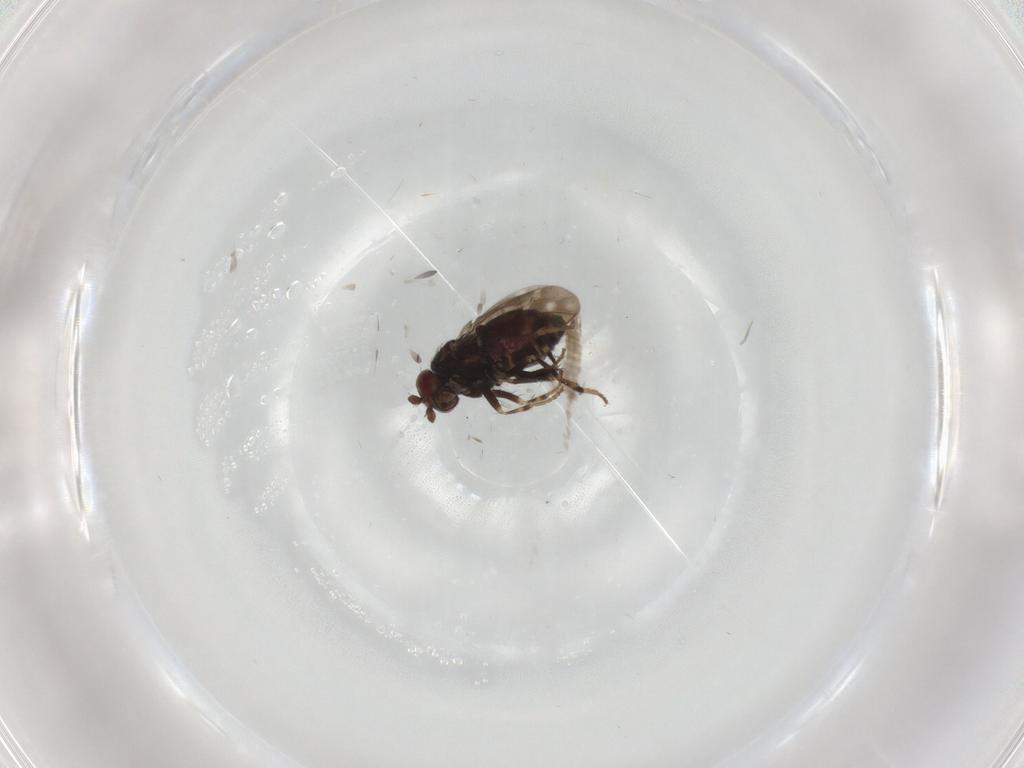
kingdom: Animalia
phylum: Arthropoda
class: Insecta
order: Diptera
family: Sphaeroceridae
